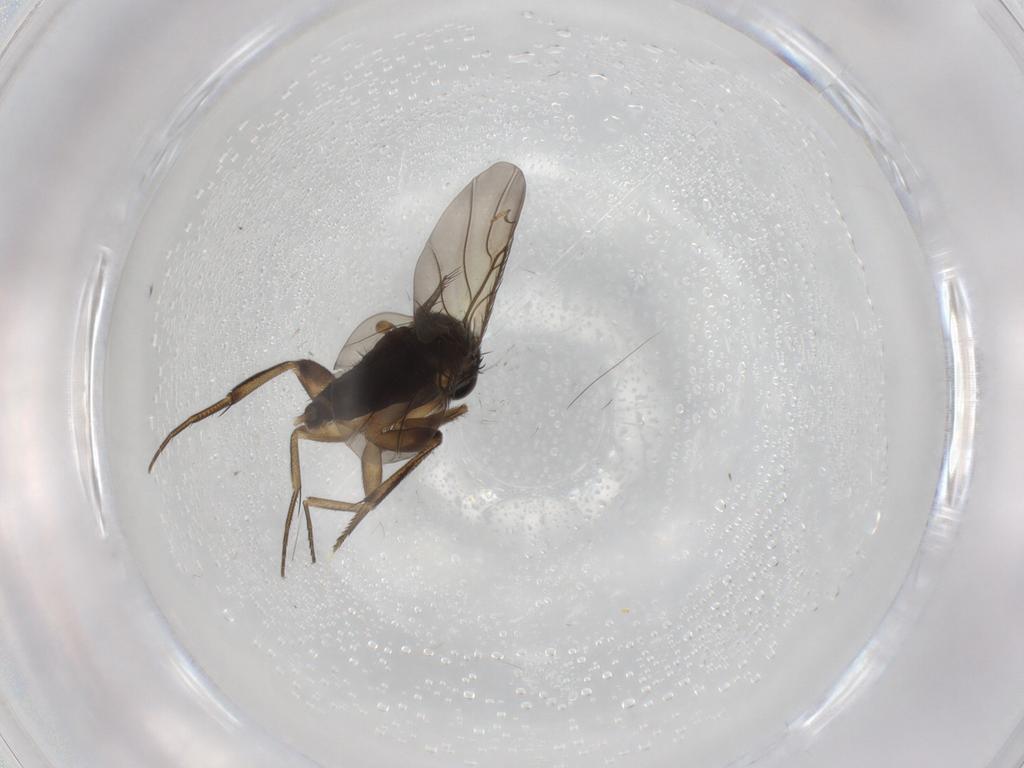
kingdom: Animalia
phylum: Arthropoda
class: Insecta
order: Diptera
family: Phoridae
